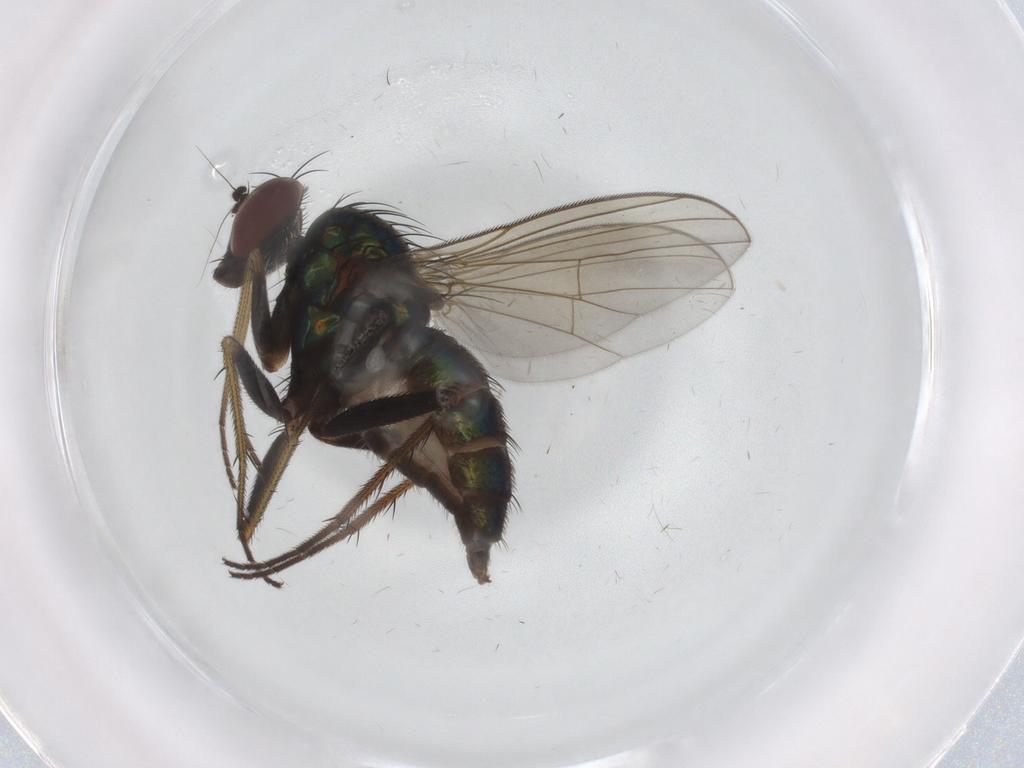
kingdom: Animalia
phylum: Arthropoda
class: Insecta
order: Diptera
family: Dolichopodidae
